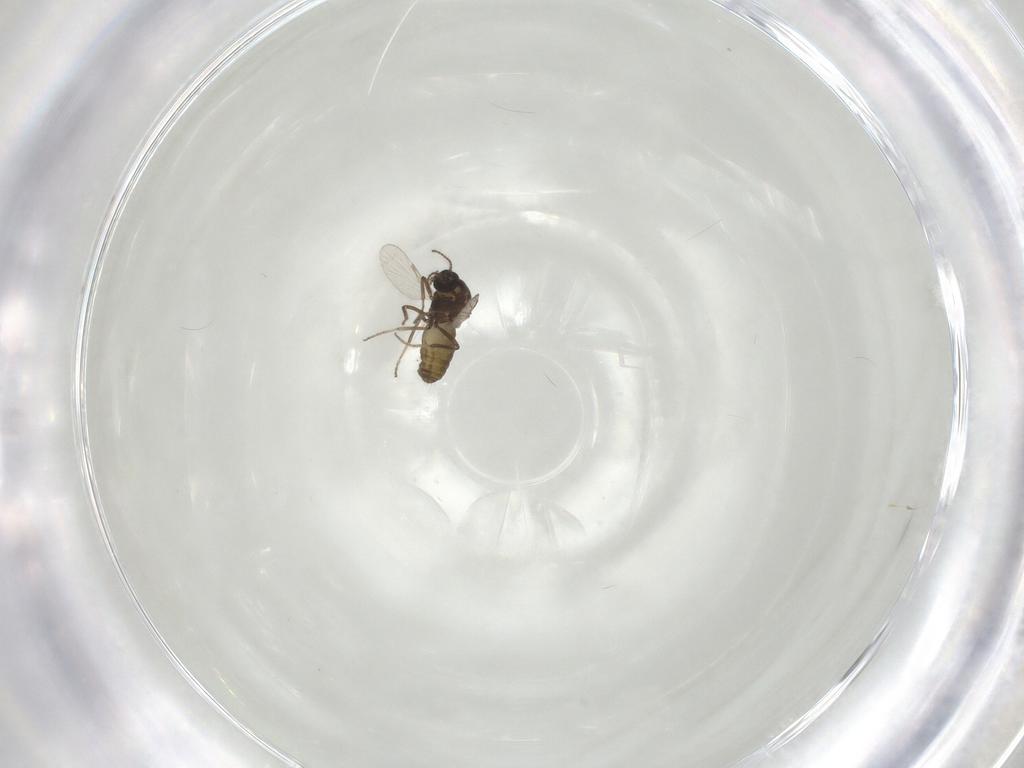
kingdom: Animalia
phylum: Arthropoda
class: Insecta
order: Diptera
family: Ceratopogonidae
